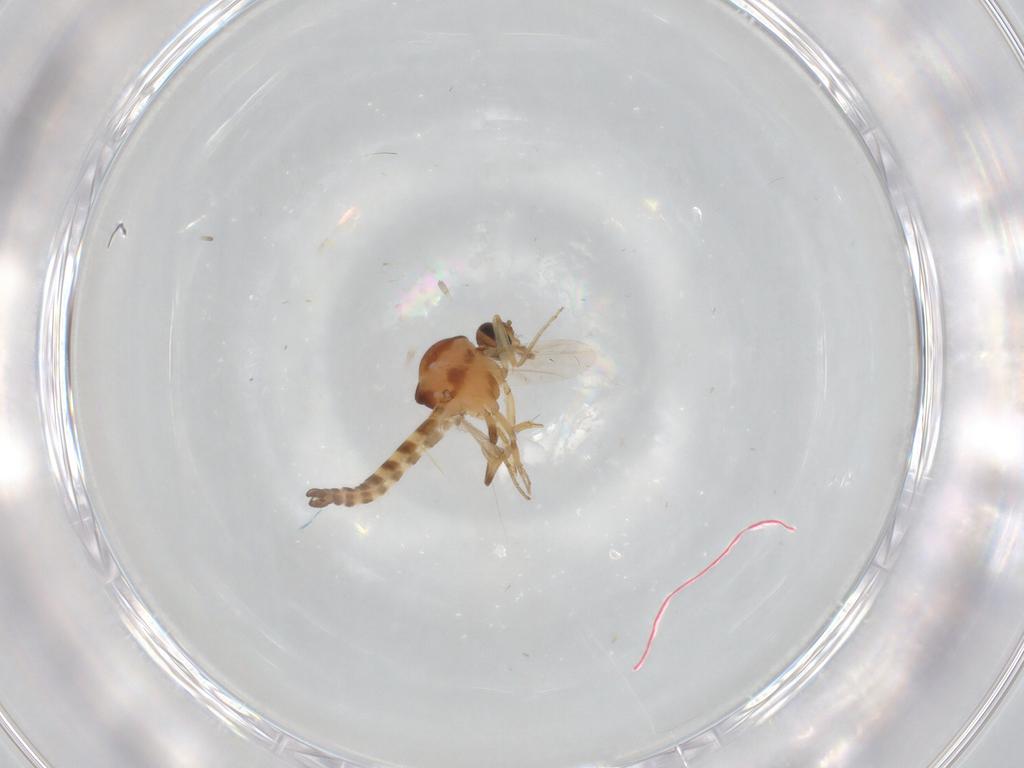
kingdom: Animalia
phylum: Arthropoda
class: Insecta
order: Diptera
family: Ceratopogonidae
